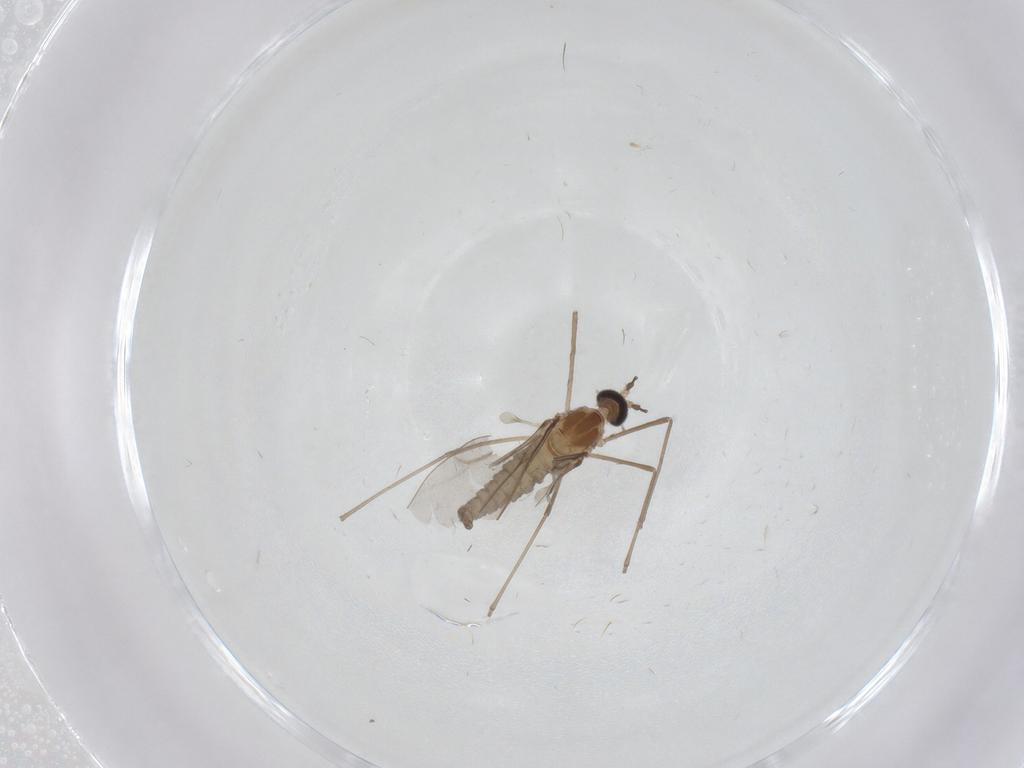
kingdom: Animalia
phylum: Arthropoda
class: Insecta
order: Diptera
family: Cecidomyiidae
